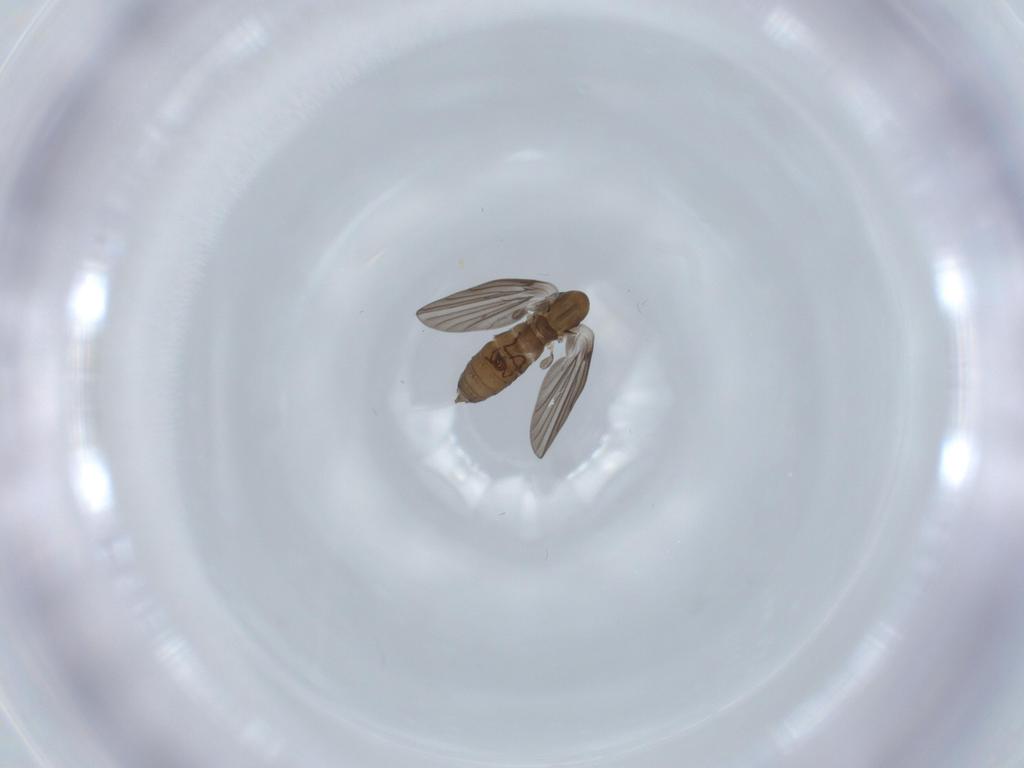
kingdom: Animalia
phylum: Arthropoda
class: Insecta
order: Diptera
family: Psychodidae
